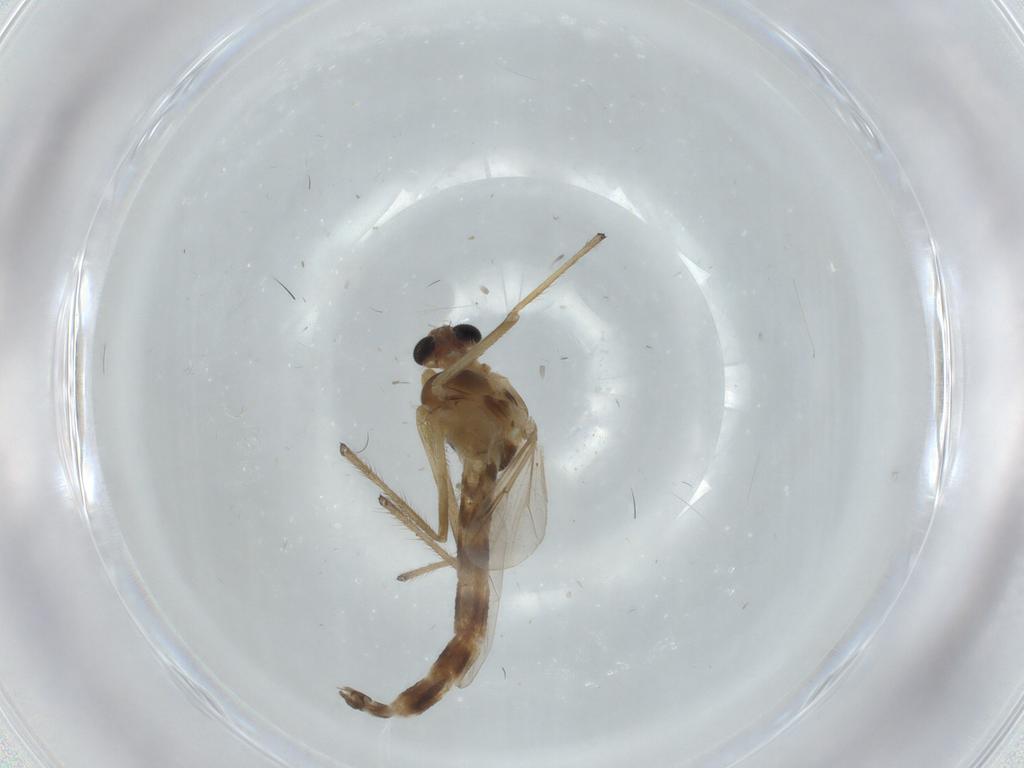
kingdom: Animalia
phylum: Arthropoda
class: Insecta
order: Diptera
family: Chironomidae
